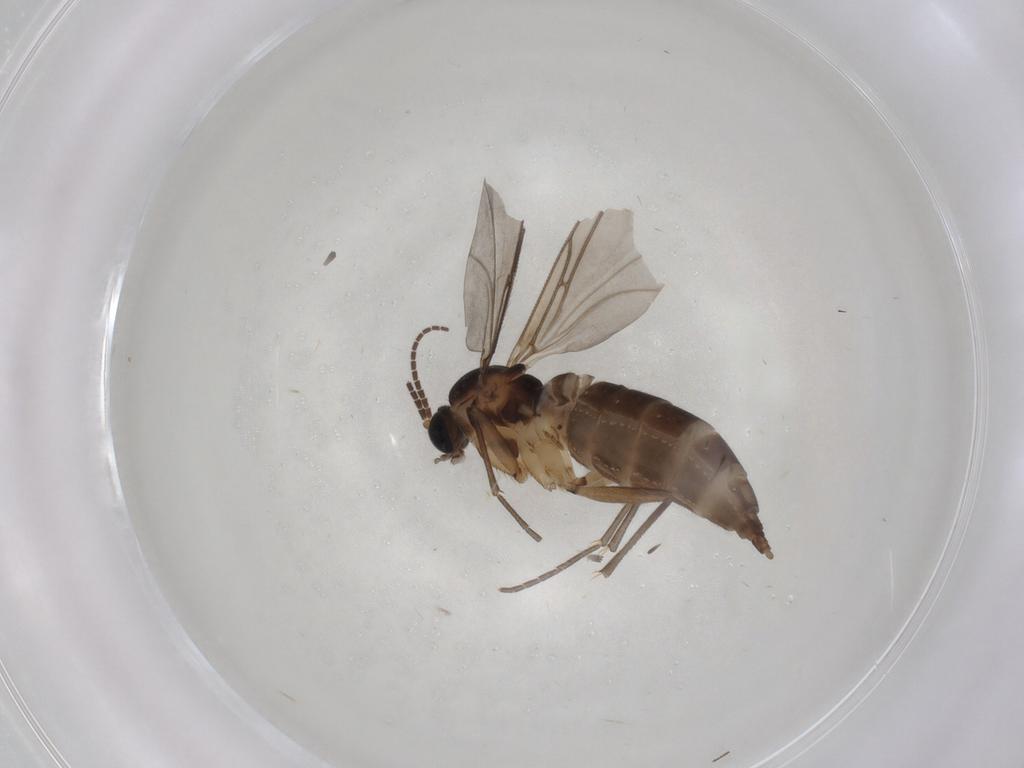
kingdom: Animalia
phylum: Arthropoda
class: Insecta
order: Diptera
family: Sciaridae
